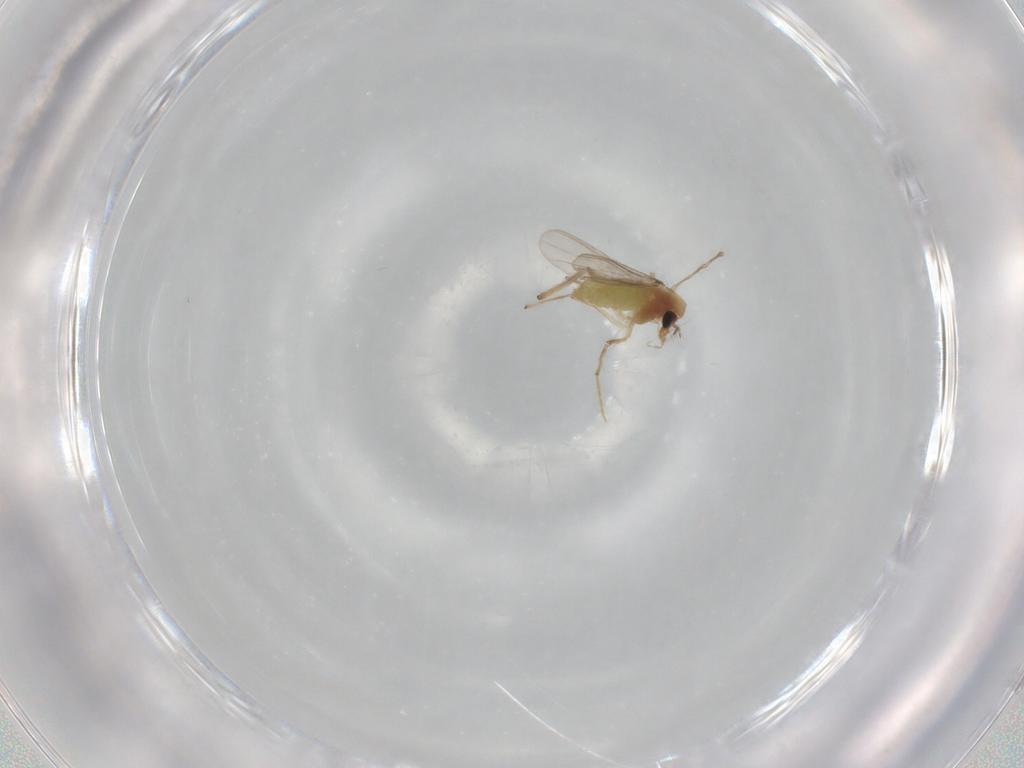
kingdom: Animalia
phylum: Arthropoda
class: Insecta
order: Diptera
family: Chironomidae
